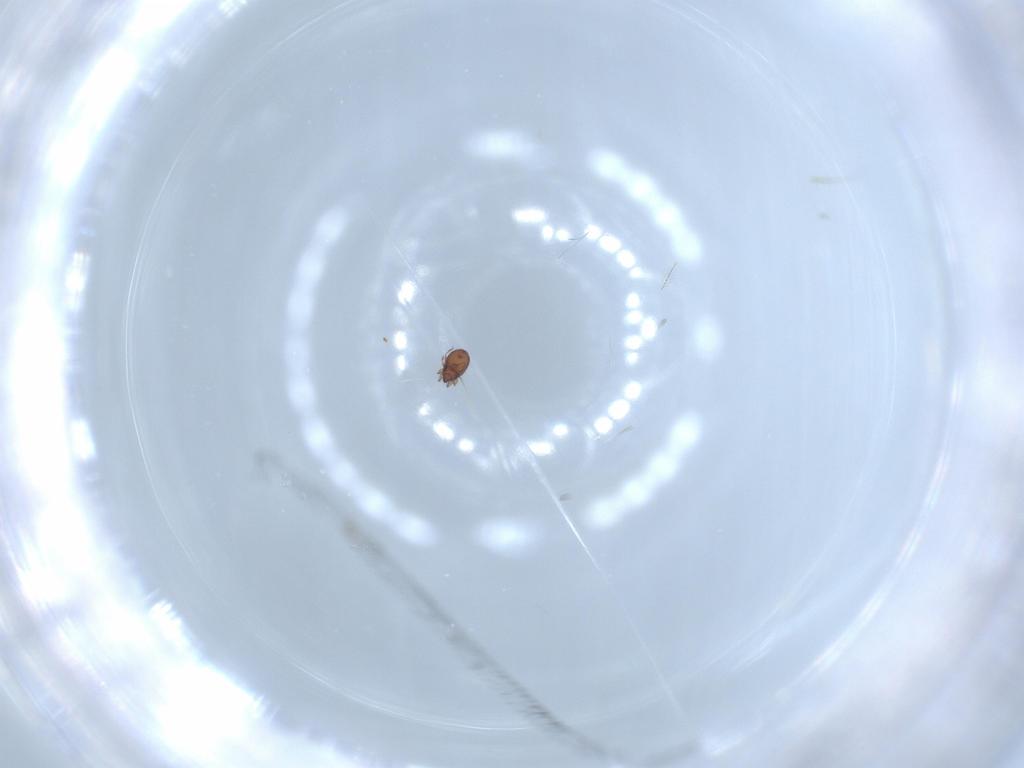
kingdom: Animalia
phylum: Arthropoda
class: Arachnida
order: Sarcoptiformes
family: Dendroeremaeidae
